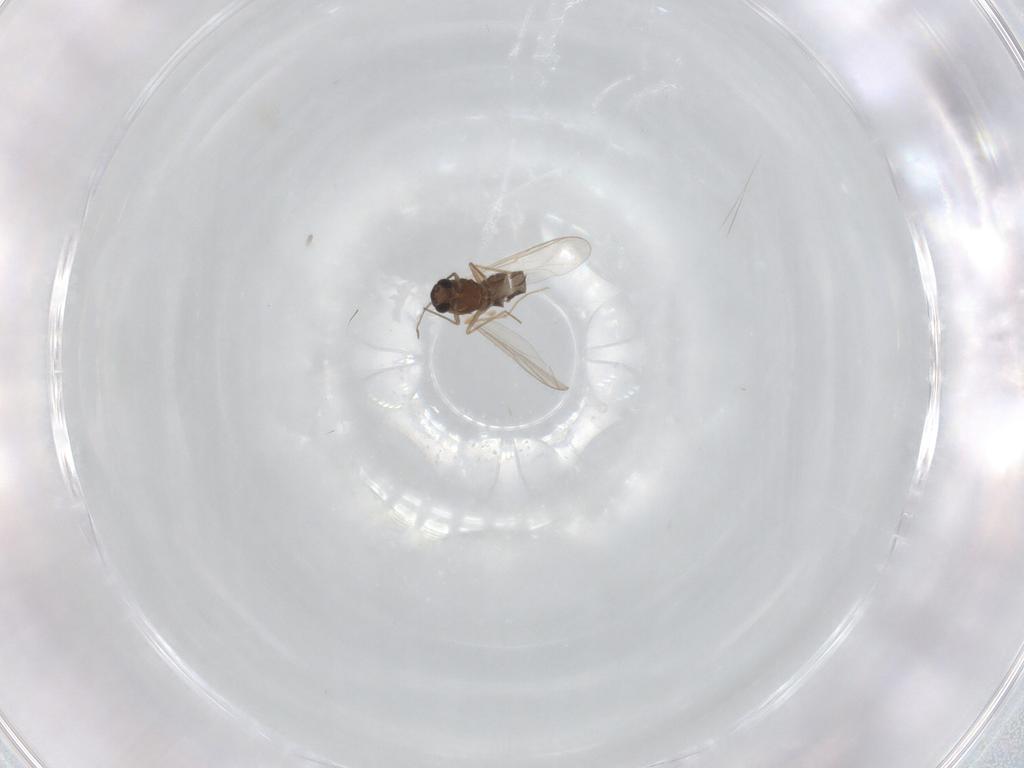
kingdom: Animalia
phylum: Arthropoda
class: Insecta
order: Diptera
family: Chironomidae
